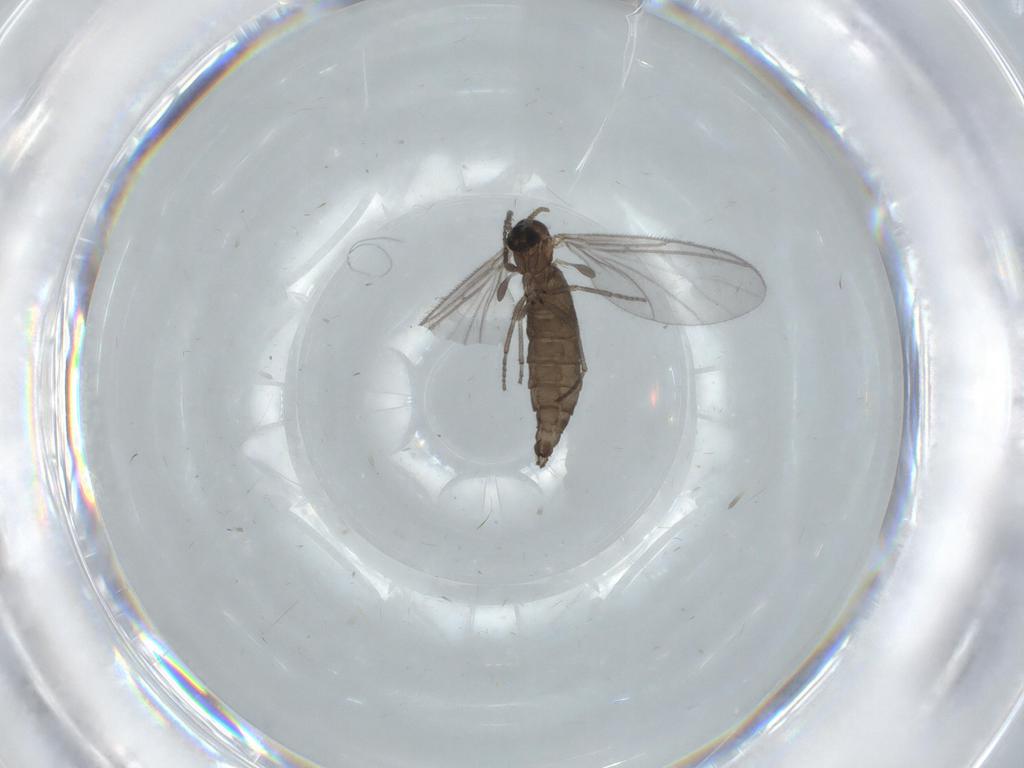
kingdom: Animalia
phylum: Arthropoda
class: Insecta
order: Diptera
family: Sciaridae
